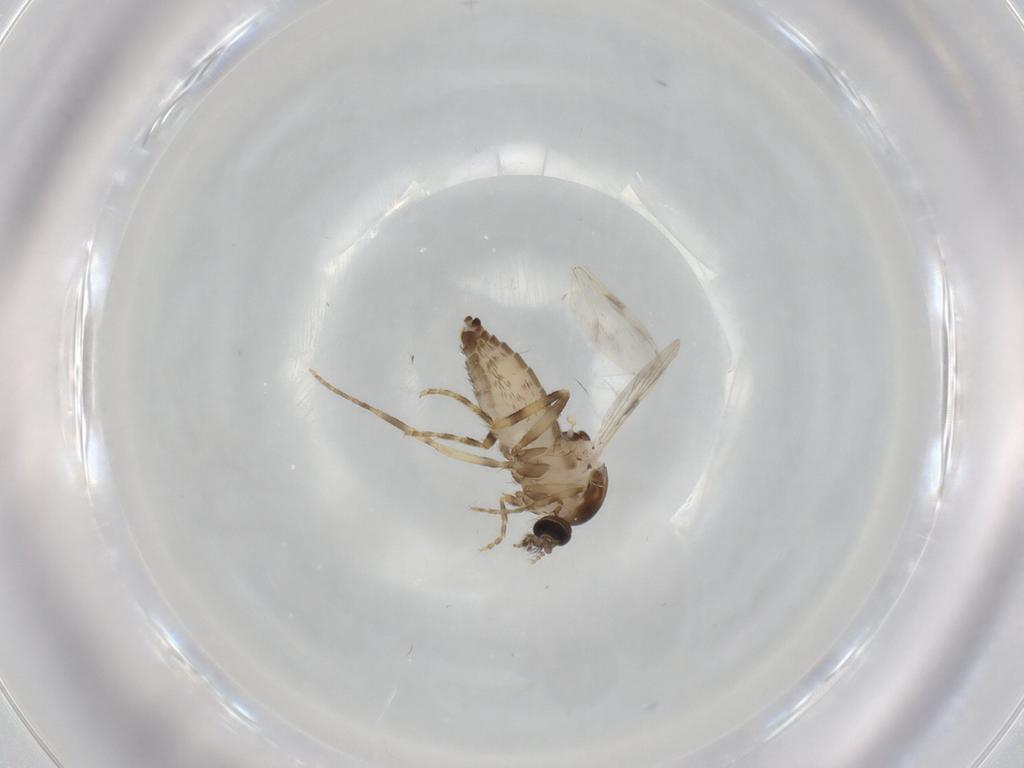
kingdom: Animalia
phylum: Arthropoda
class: Insecta
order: Diptera
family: Ceratopogonidae
